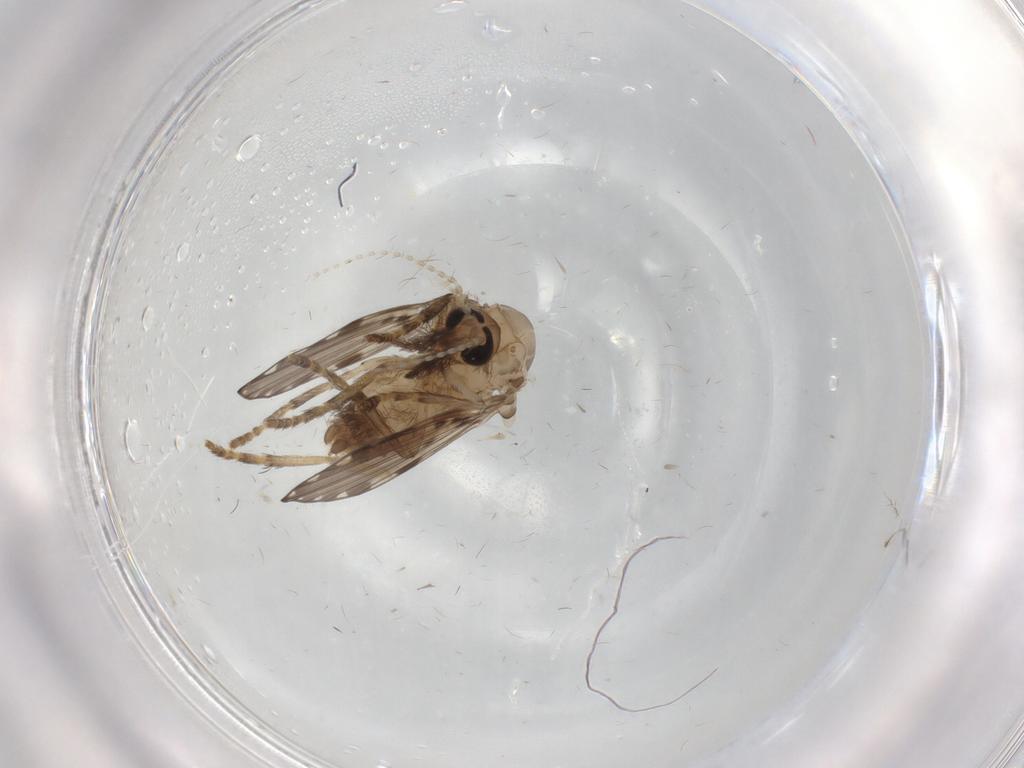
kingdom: Animalia
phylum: Arthropoda
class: Insecta
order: Diptera
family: Psychodidae
